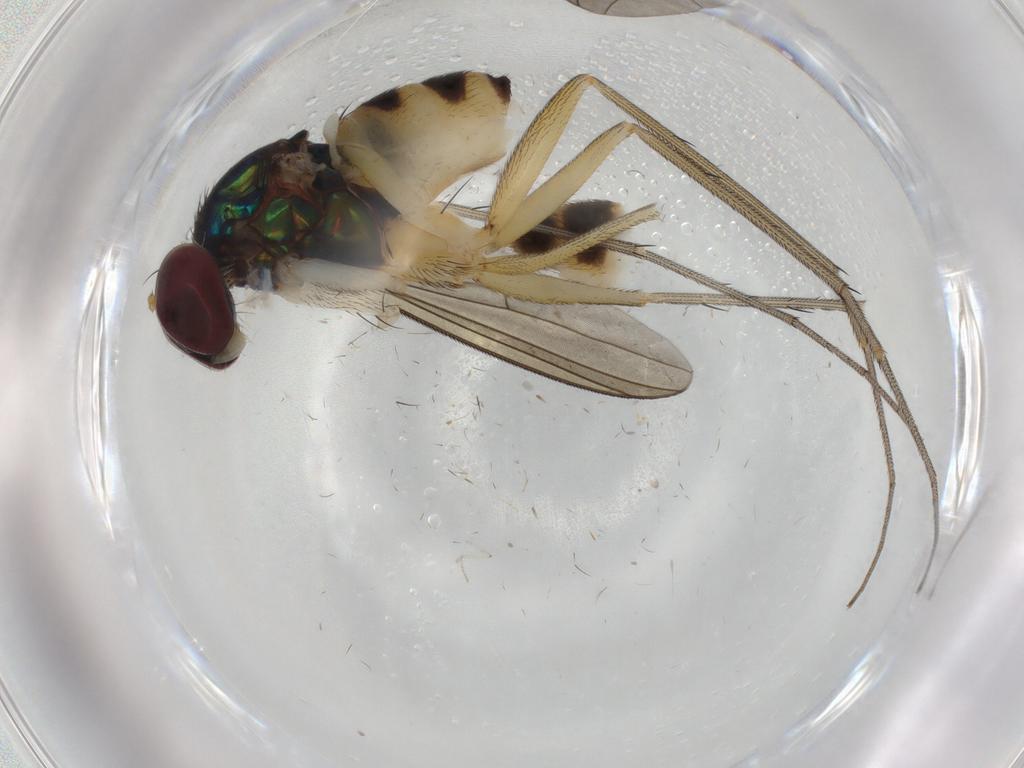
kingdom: Animalia
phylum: Arthropoda
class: Insecta
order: Diptera
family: Dolichopodidae
